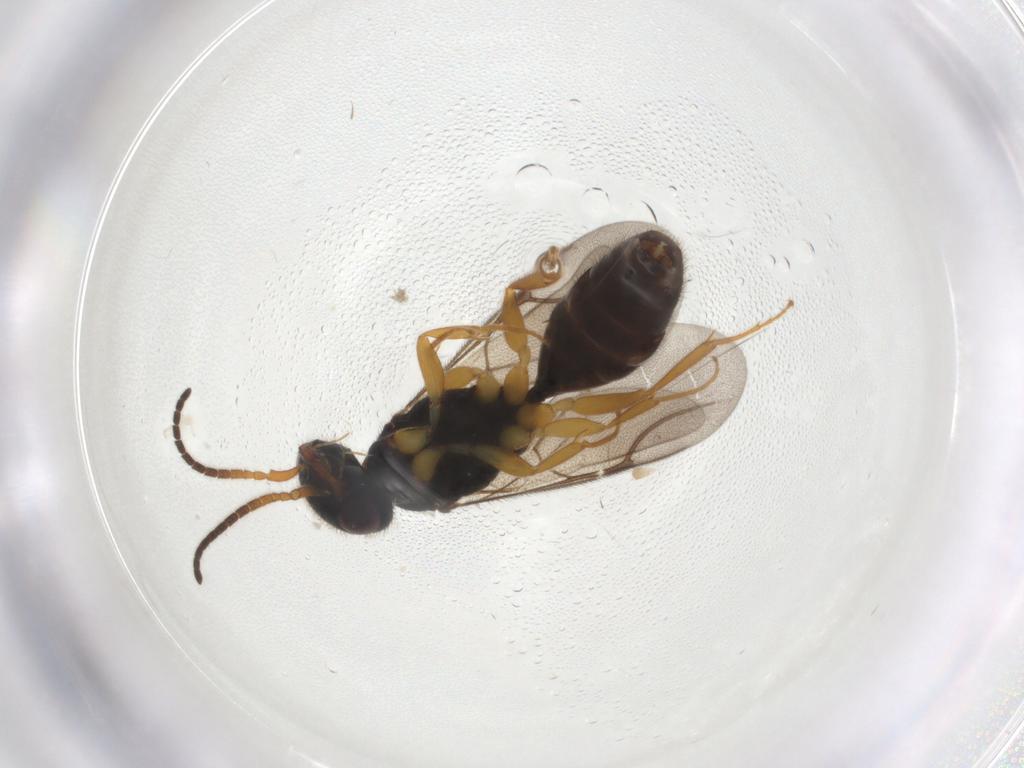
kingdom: Animalia
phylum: Arthropoda
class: Insecta
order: Hymenoptera
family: Bethylidae
